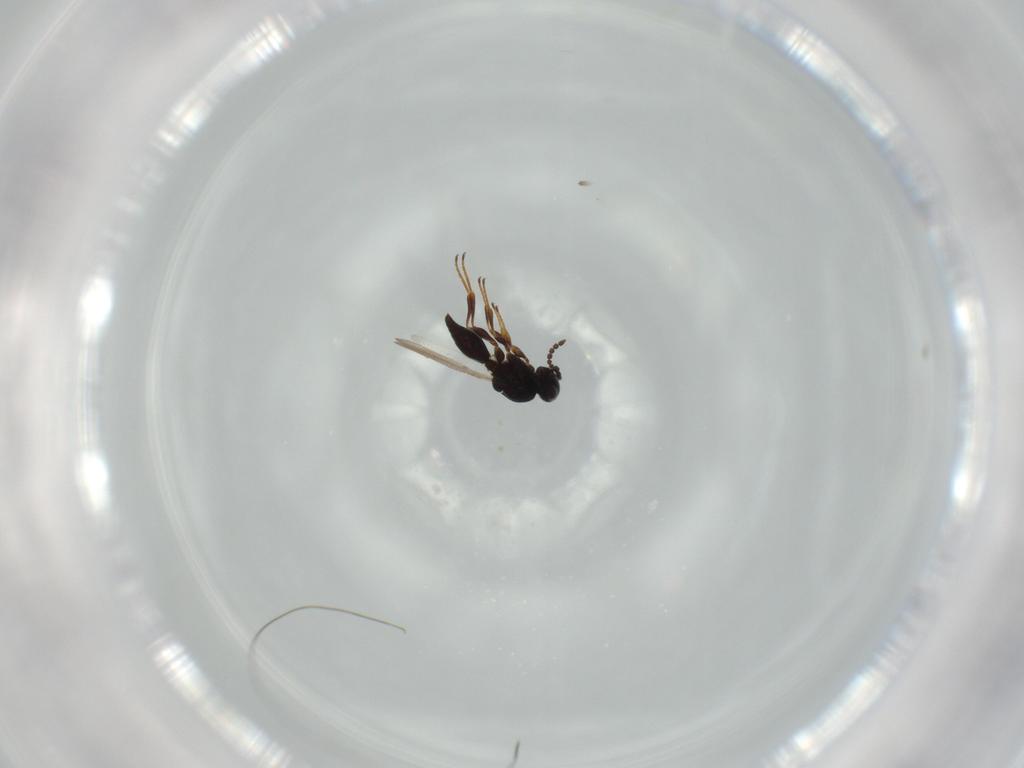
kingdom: Animalia
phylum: Arthropoda
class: Insecta
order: Hymenoptera
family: Platygastridae
